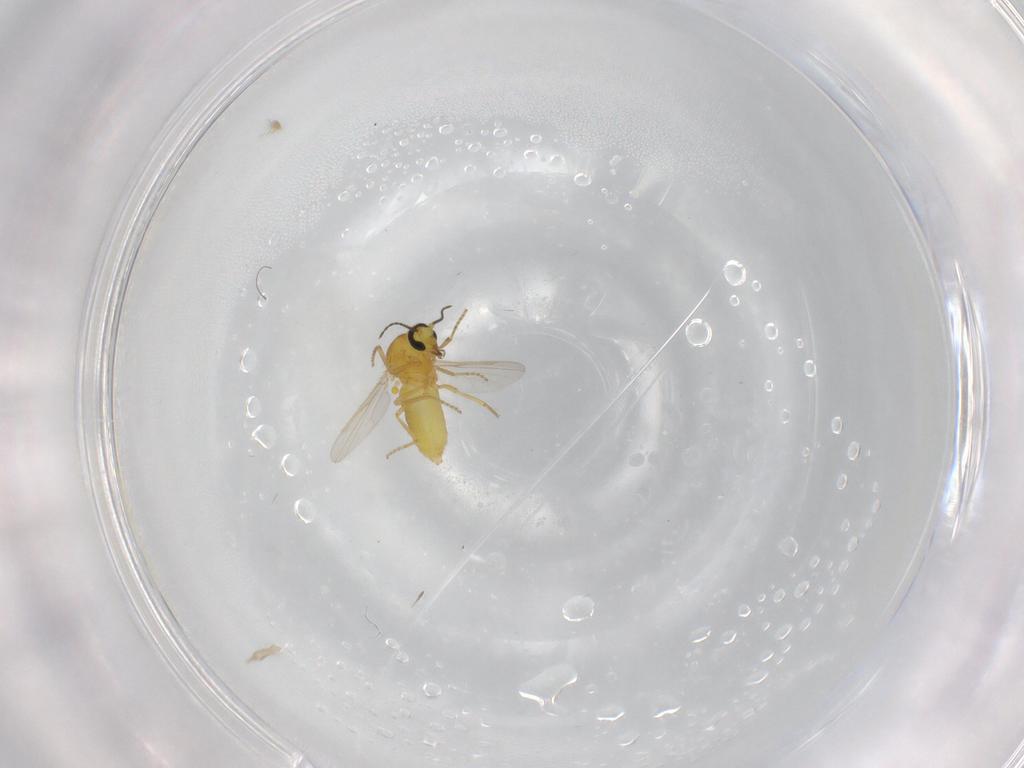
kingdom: Animalia
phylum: Arthropoda
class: Insecta
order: Diptera
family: Ceratopogonidae
